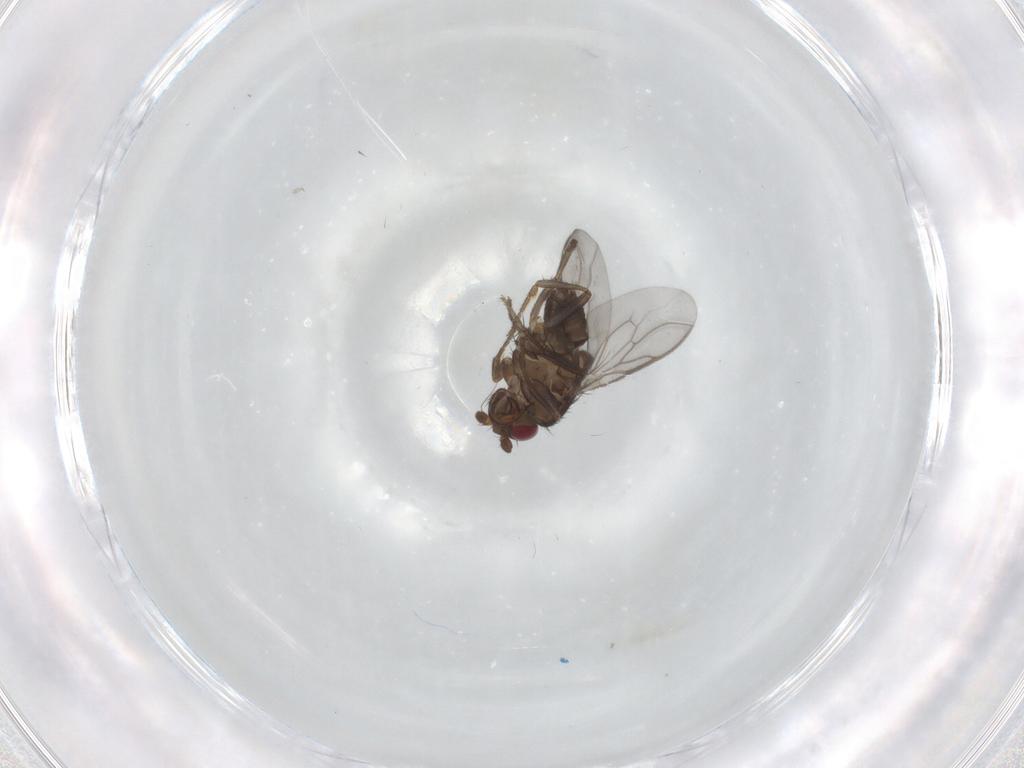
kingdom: Animalia
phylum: Arthropoda
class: Insecta
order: Diptera
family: Sphaeroceridae
